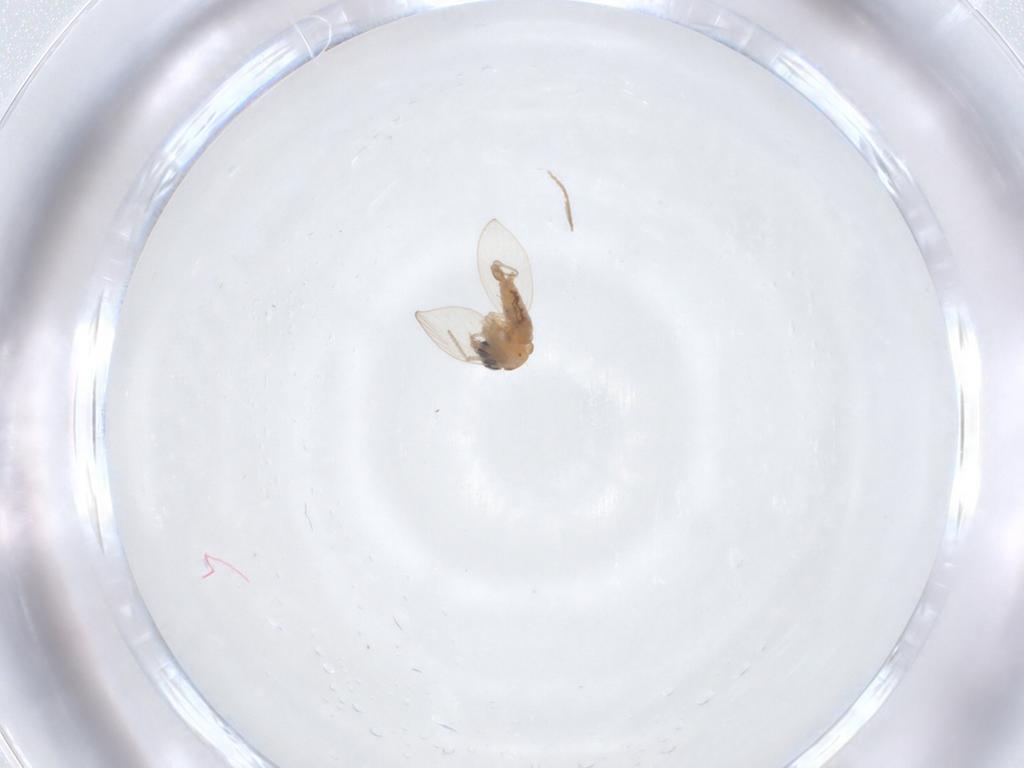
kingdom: Animalia
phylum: Arthropoda
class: Insecta
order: Diptera
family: Psychodidae
